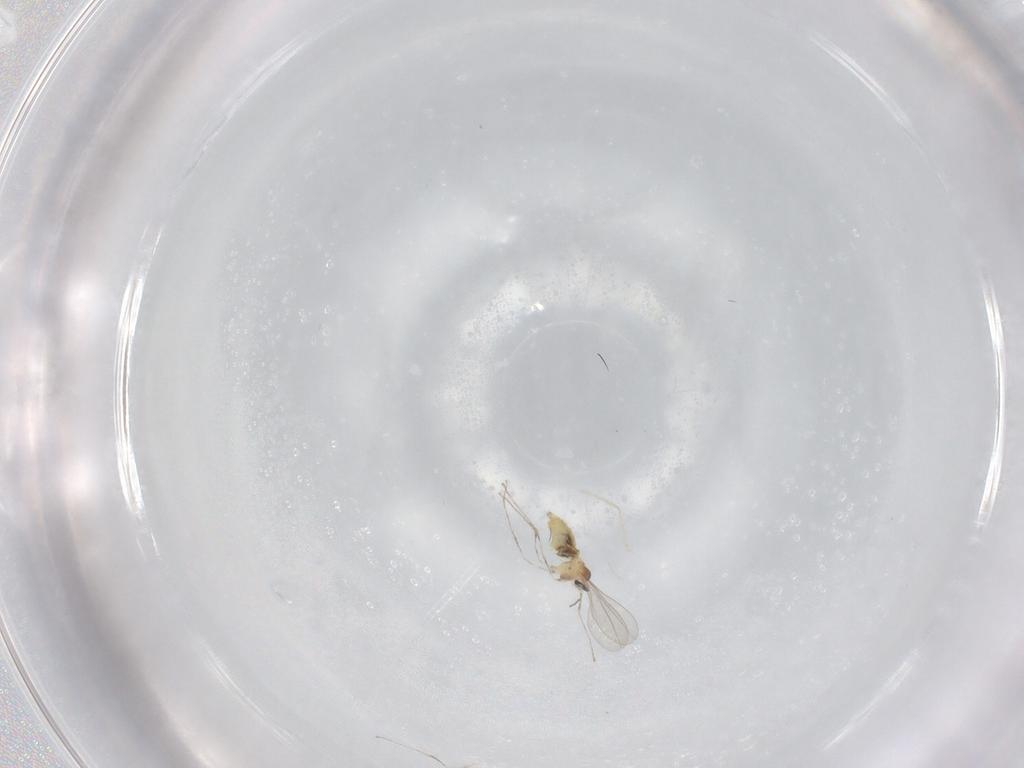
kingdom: Animalia
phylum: Arthropoda
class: Insecta
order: Diptera
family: Cecidomyiidae
